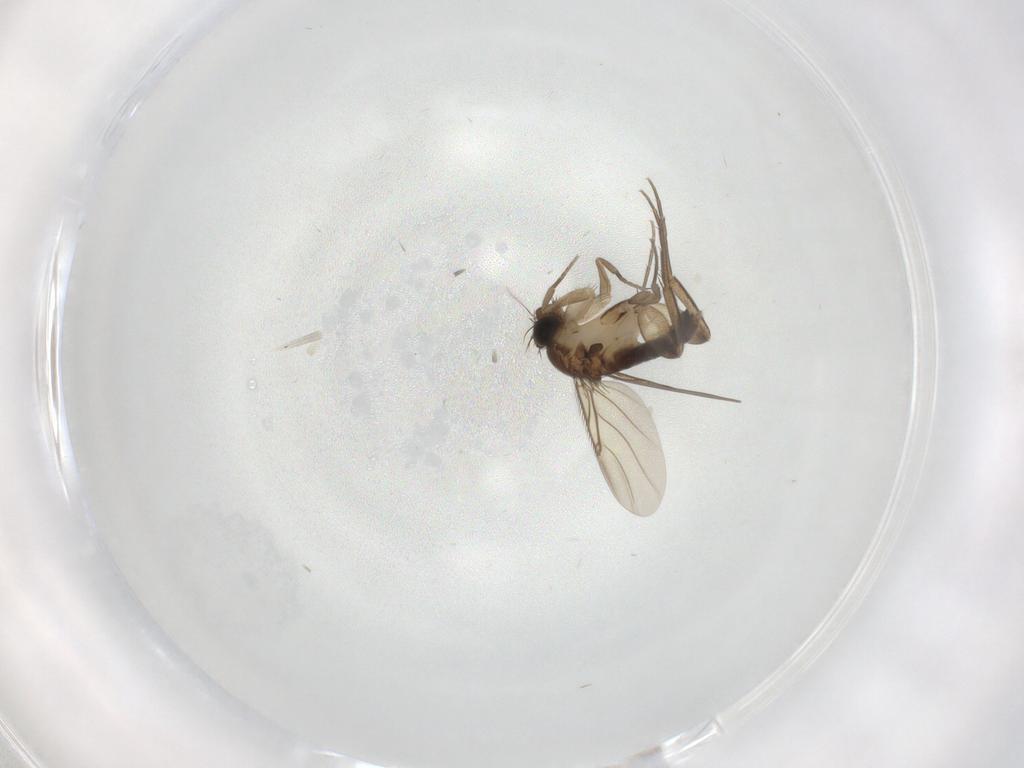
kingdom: Animalia
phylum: Arthropoda
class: Insecta
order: Diptera
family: Phoridae
